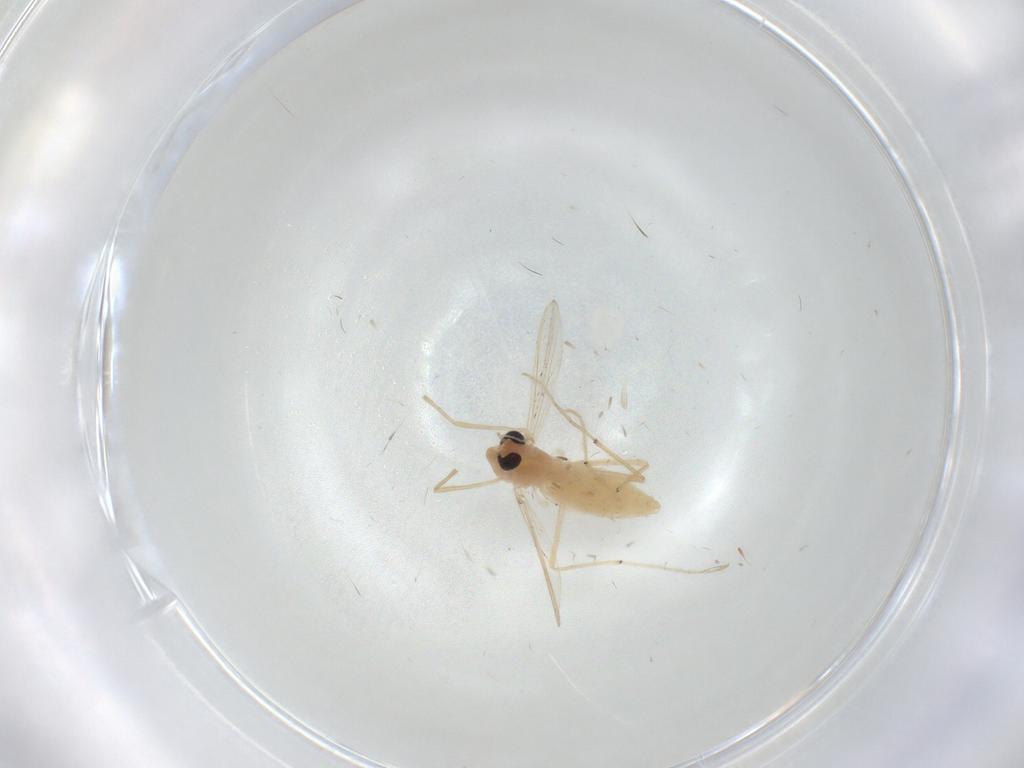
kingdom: Animalia
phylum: Arthropoda
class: Insecta
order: Diptera
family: Chironomidae
